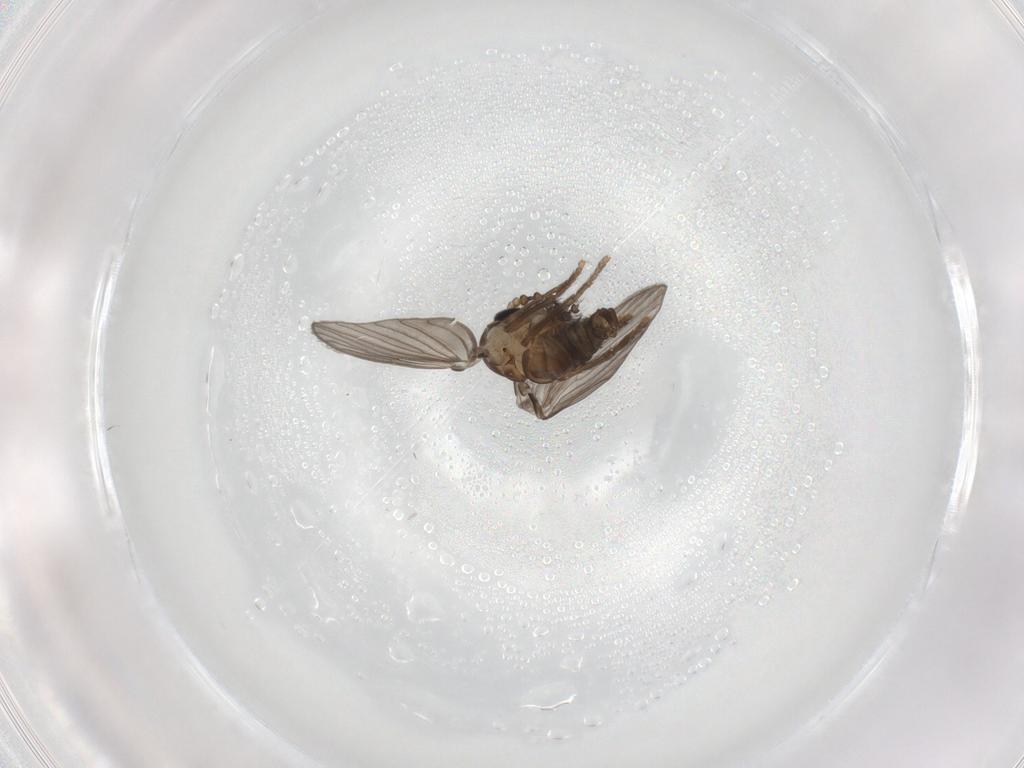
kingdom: Animalia
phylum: Arthropoda
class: Insecta
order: Diptera
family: Psychodidae
